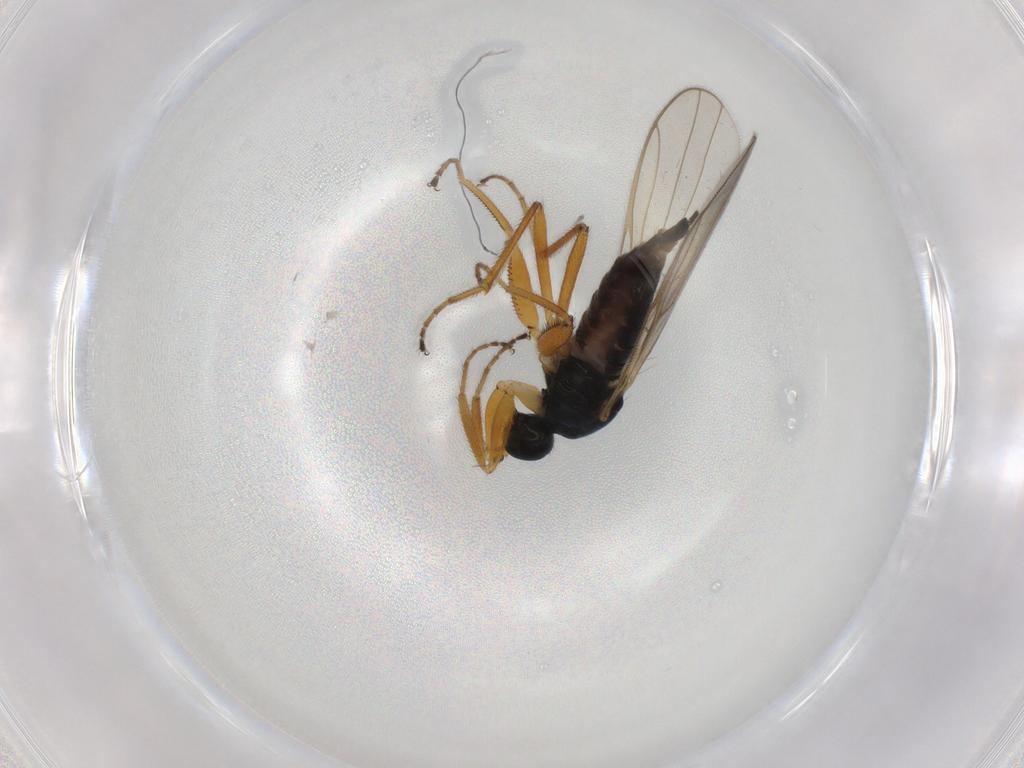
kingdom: Animalia
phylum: Arthropoda
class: Insecta
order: Diptera
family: Hybotidae
